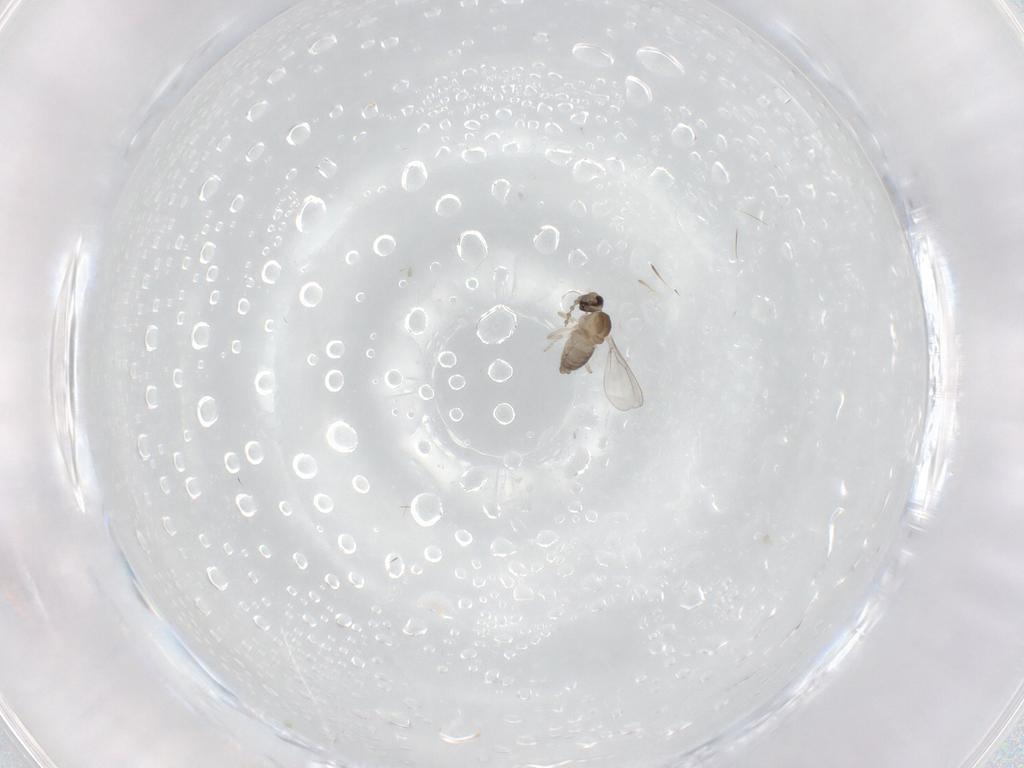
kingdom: Animalia
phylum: Arthropoda
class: Insecta
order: Diptera
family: Cecidomyiidae
